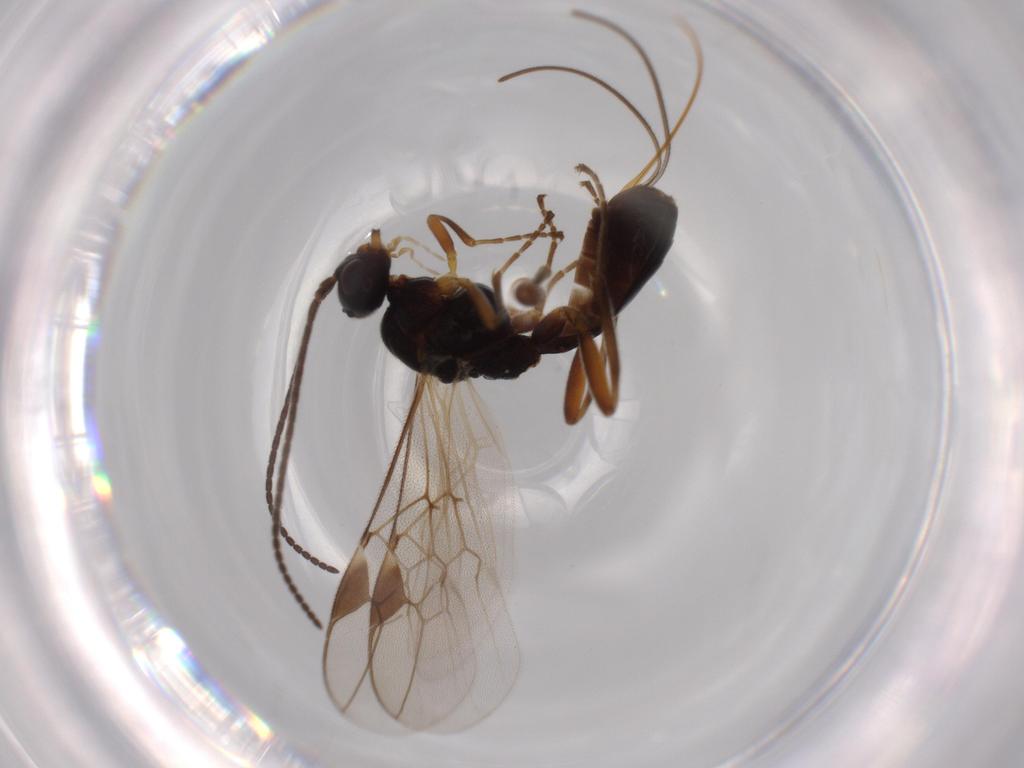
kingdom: Animalia
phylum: Arthropoda
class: Insecta
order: Hymenoptera
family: Braconidae
